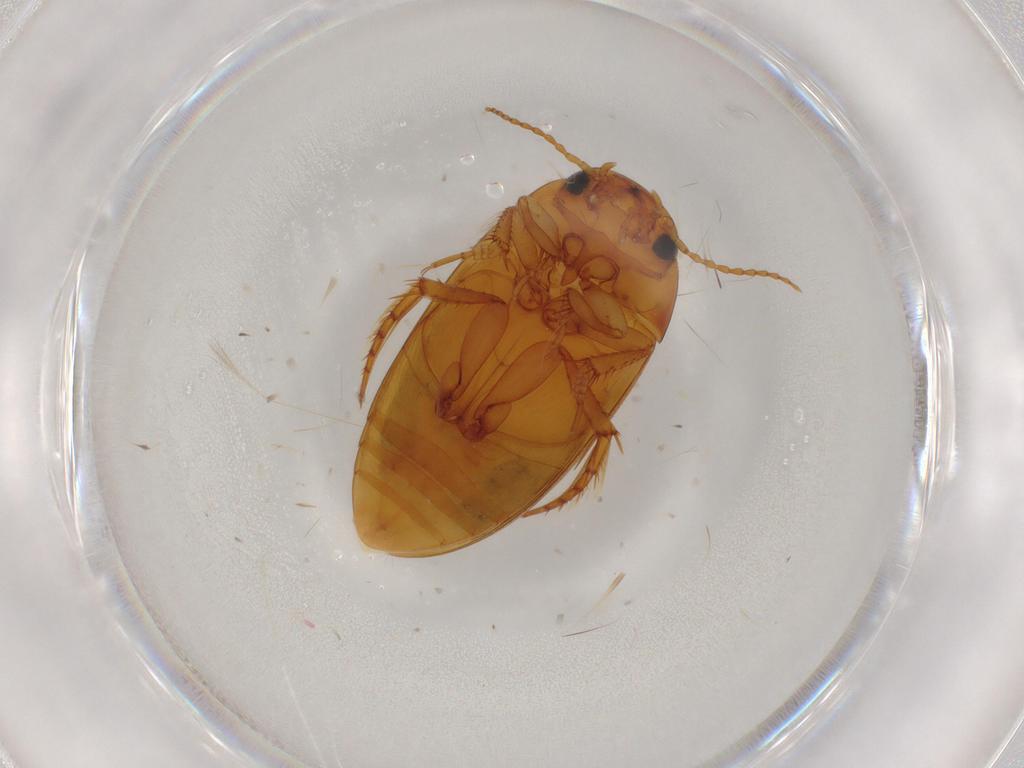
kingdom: Animalia
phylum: Arthropoda
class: Insecta
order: Coleoptera
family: Dytiscidae
